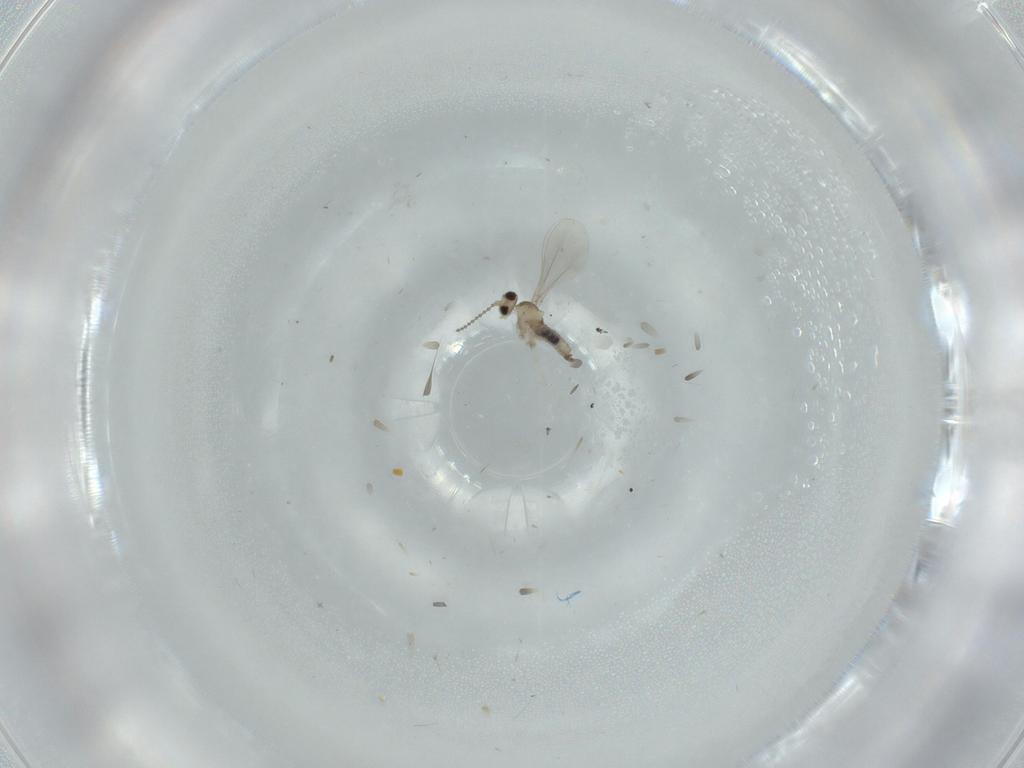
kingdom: Animalia
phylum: Arthropoda
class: Insecta
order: Diptera
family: Cecidomyiidae
